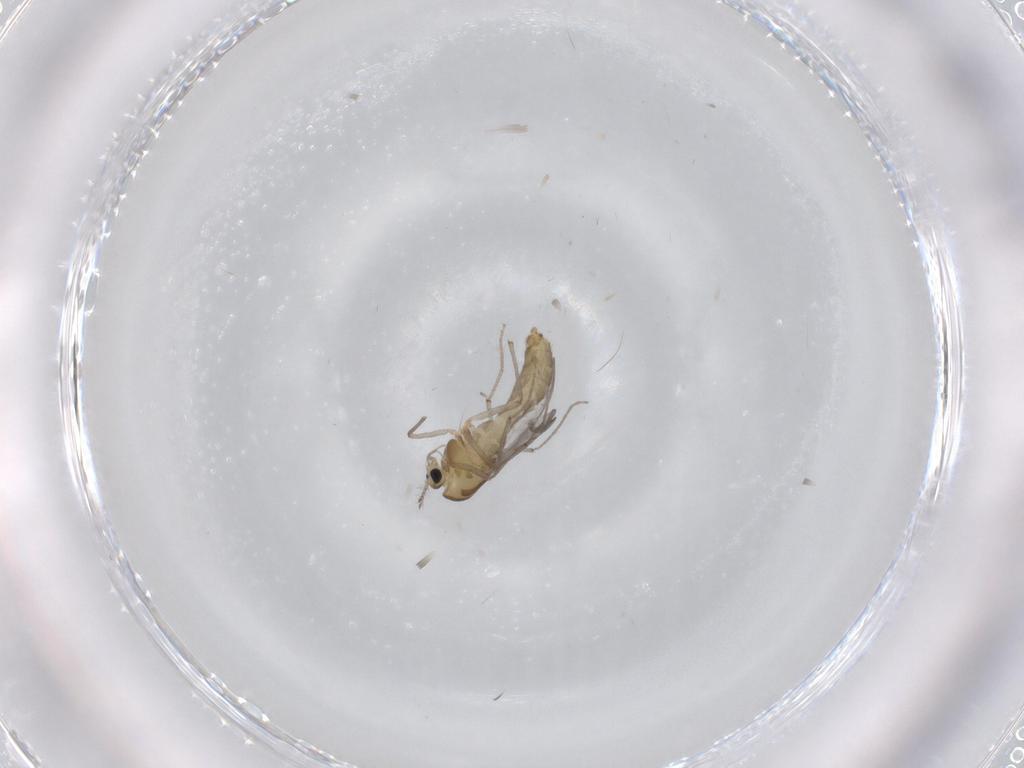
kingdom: Animalia
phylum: Arthropoda
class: Insecta
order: Diptera
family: Chironomidae
